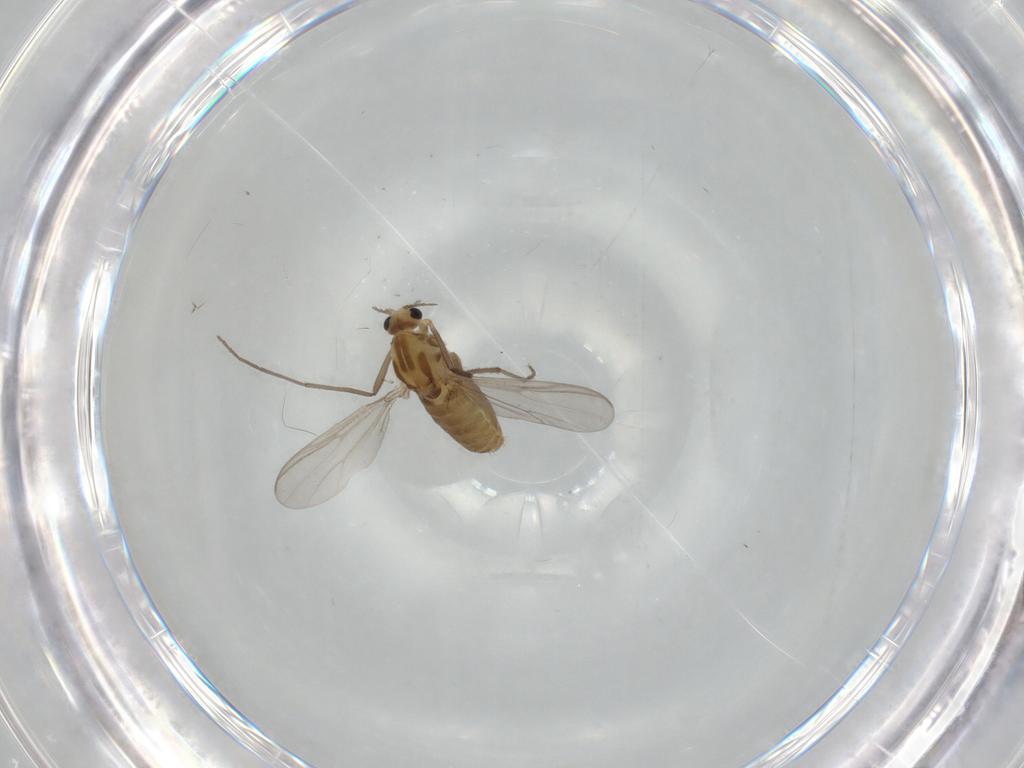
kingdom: Animalia
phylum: Arthropoda
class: Insecta
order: Diptera
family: Chironomidae
